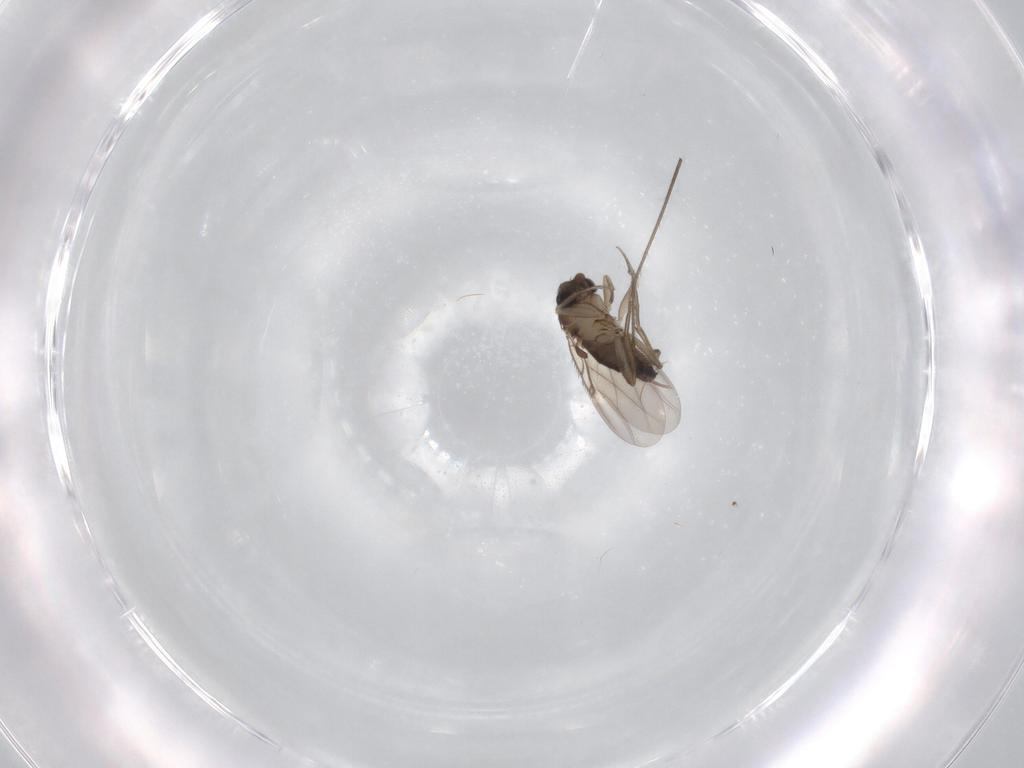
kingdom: Animalia
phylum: Arthropoda
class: Insecta
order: Diptera
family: Limoniidae
